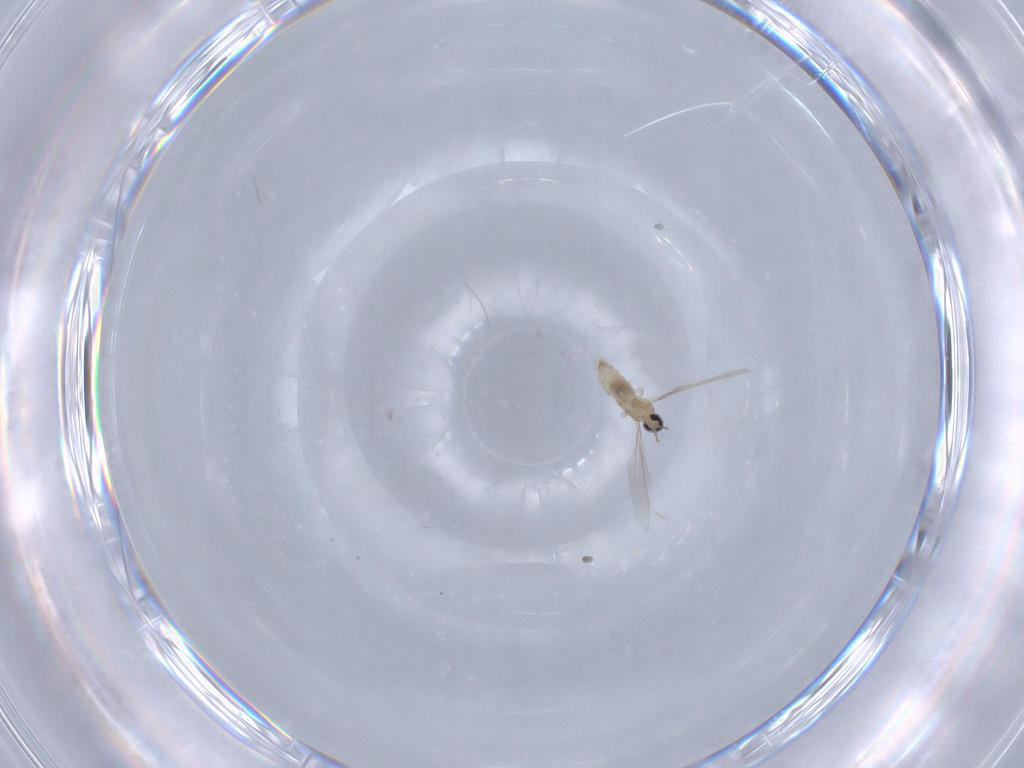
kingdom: Animalia
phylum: Arthropoda
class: Insecta
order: Diptera
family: Cecidomyiidae
